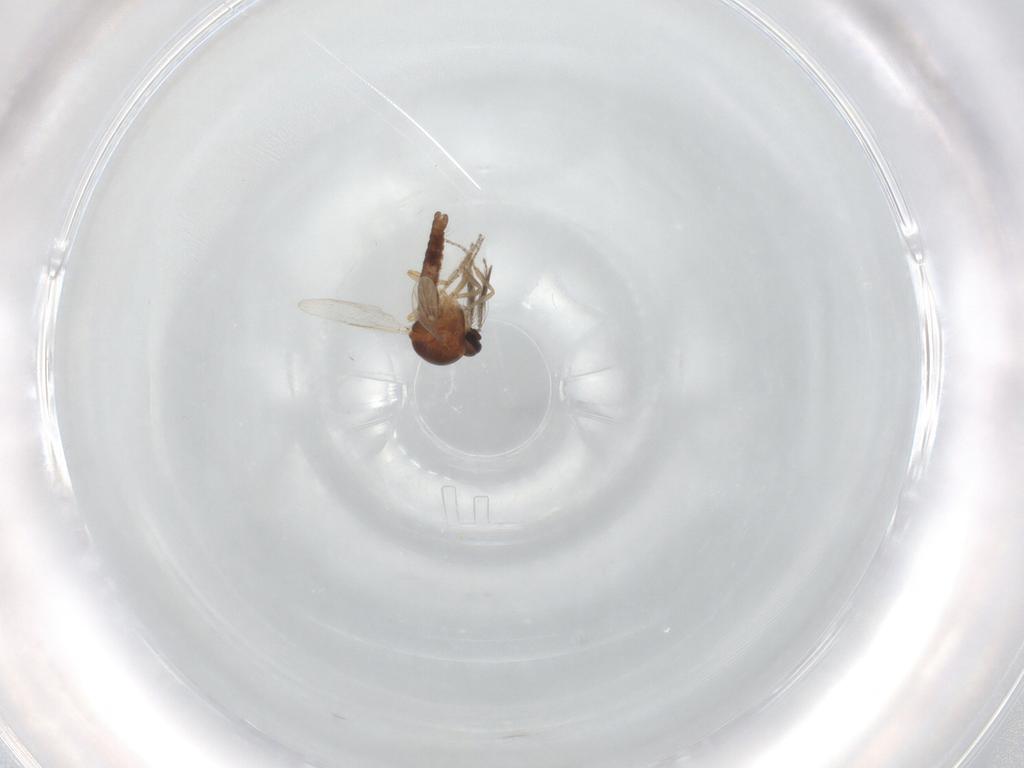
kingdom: Animalia
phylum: Arthropoda
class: Insecta
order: Diptera
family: Ceratopogonidae
